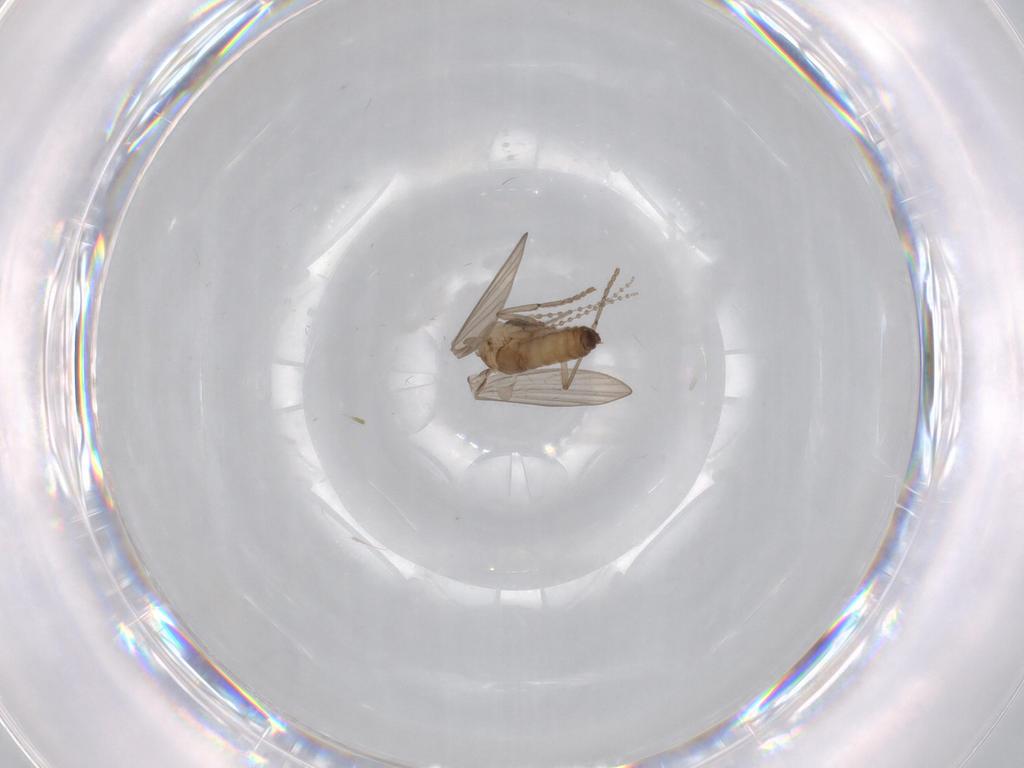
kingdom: Animalia
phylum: Arthropoda
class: Insecta
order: Diptera
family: Psychodidae
